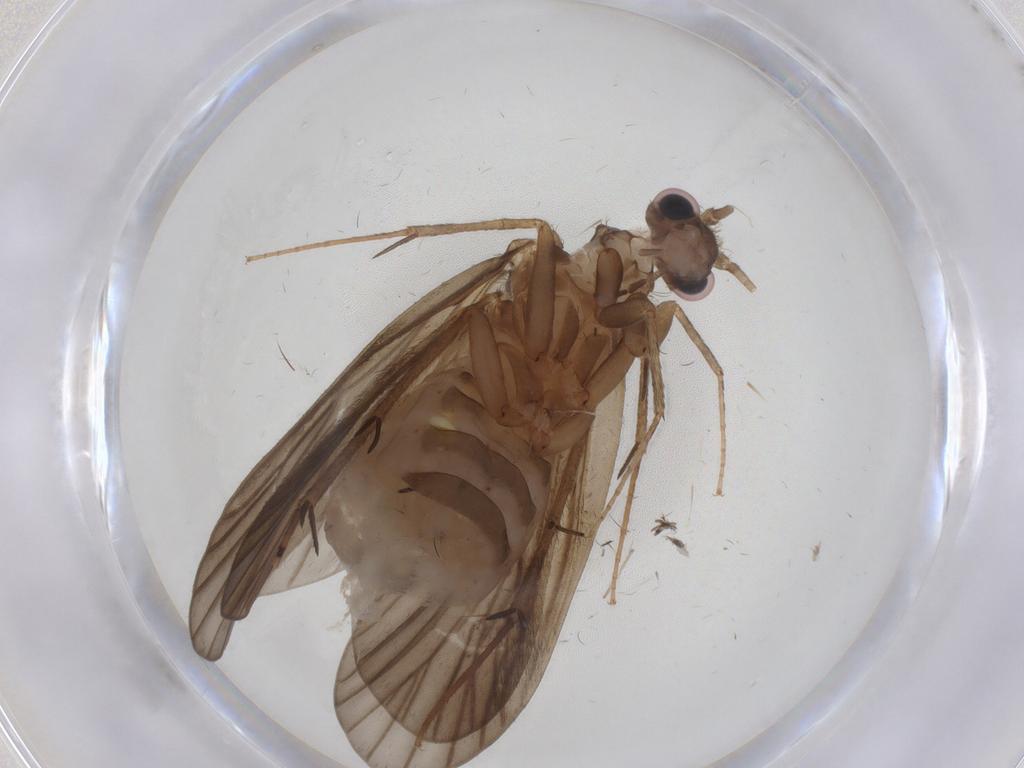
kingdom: Animalia
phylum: Arthropoda
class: Insecta
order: Trichoptera
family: Philopotamidae
